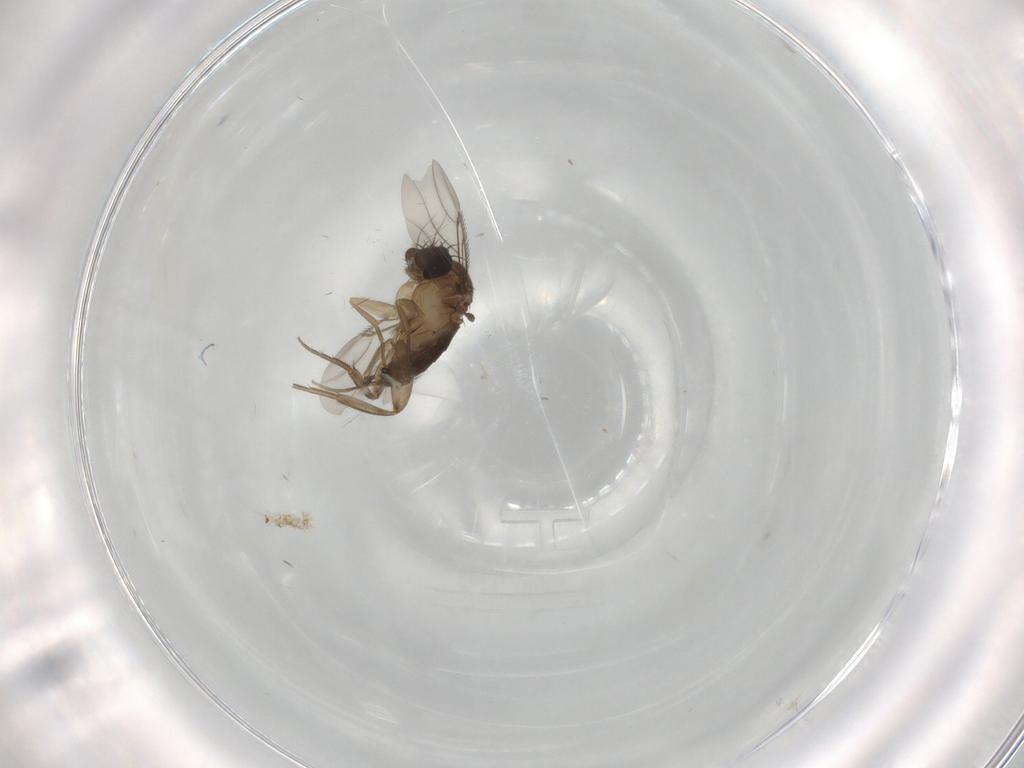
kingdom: Animalia
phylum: Arthropoda
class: Insecta
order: Diptera
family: Phoridae
